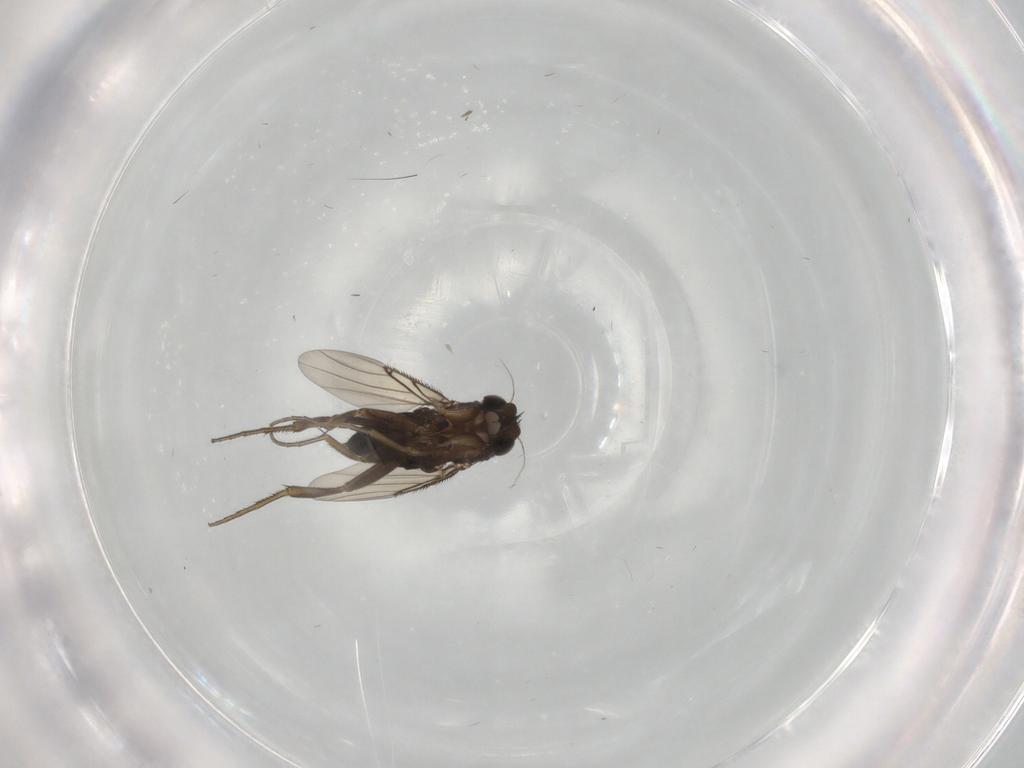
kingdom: Animalia
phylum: Arthropoda
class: Insecta
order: Diptera
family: Phoridae
